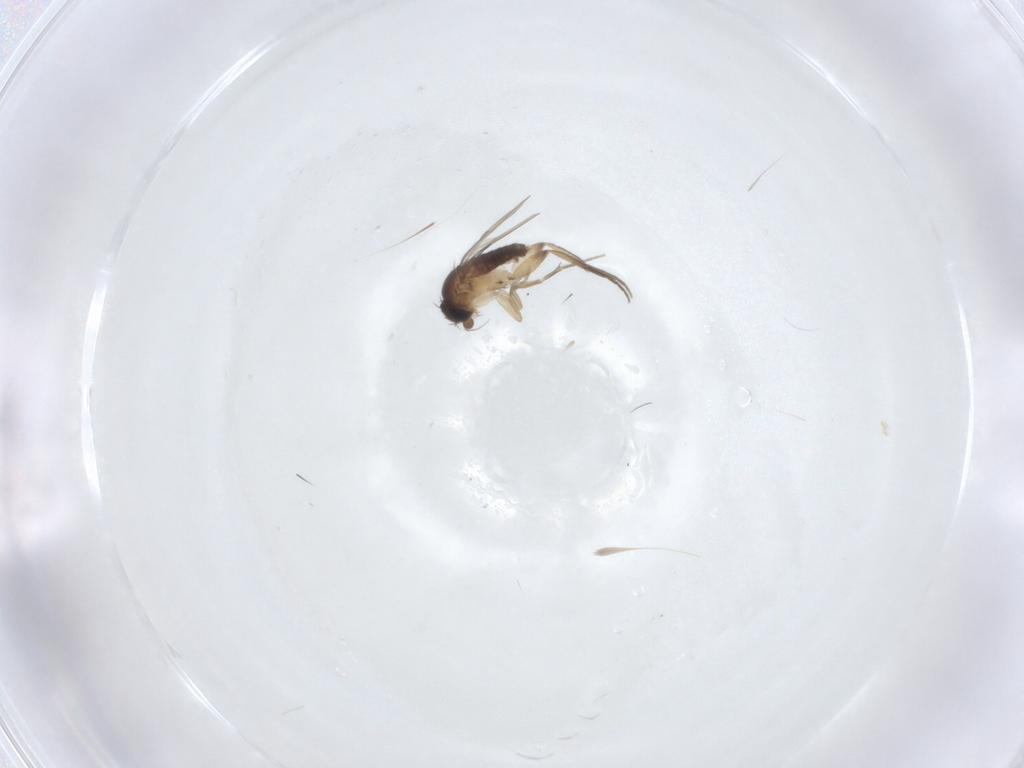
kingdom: Animalia
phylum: Arthropoda
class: Insecta
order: Diptera
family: Phoridae
